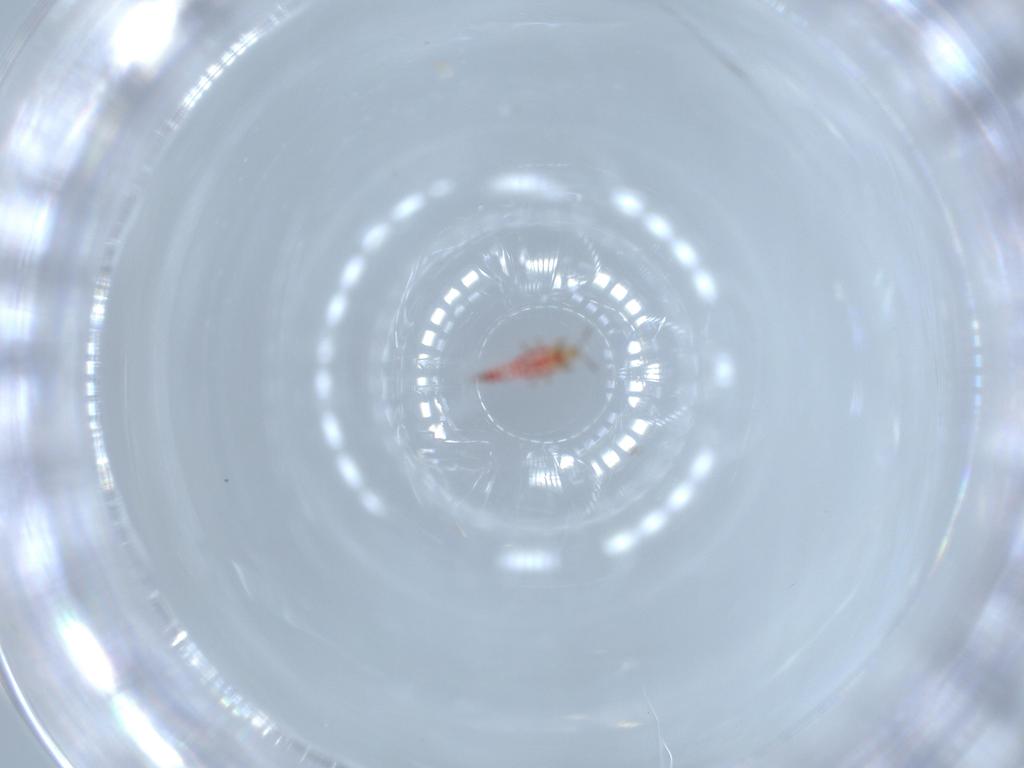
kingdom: Animalia
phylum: Arthropoda
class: Insecta
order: Thysanoptera
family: Phlaeothripidae
